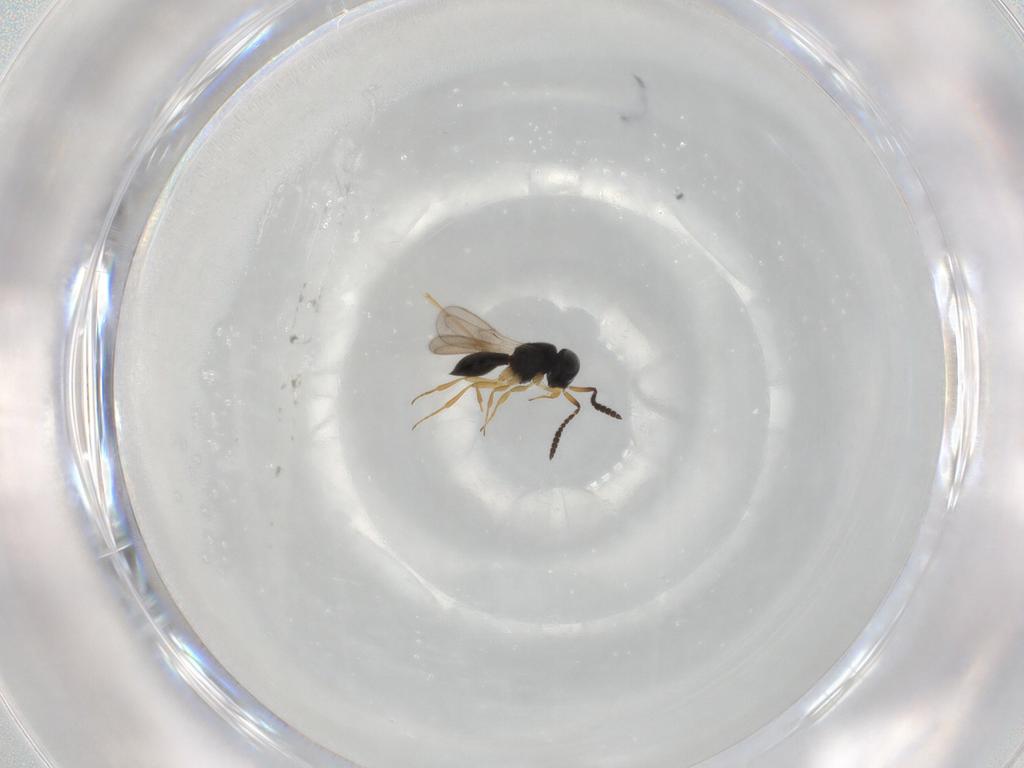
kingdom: Animalia
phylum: Arthropoda
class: Insecta
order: Hymenoptera
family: Scelionidae
